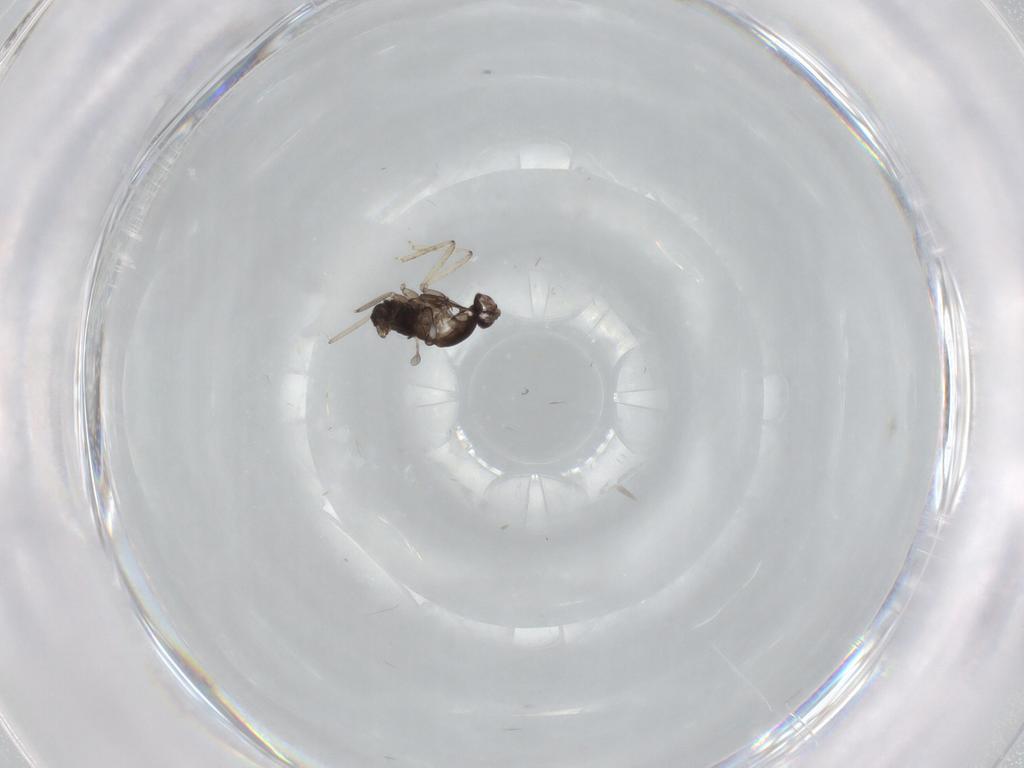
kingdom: Animalia
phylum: Arthropoda
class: Insecta
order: Diptera
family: Cecidomyiidae
